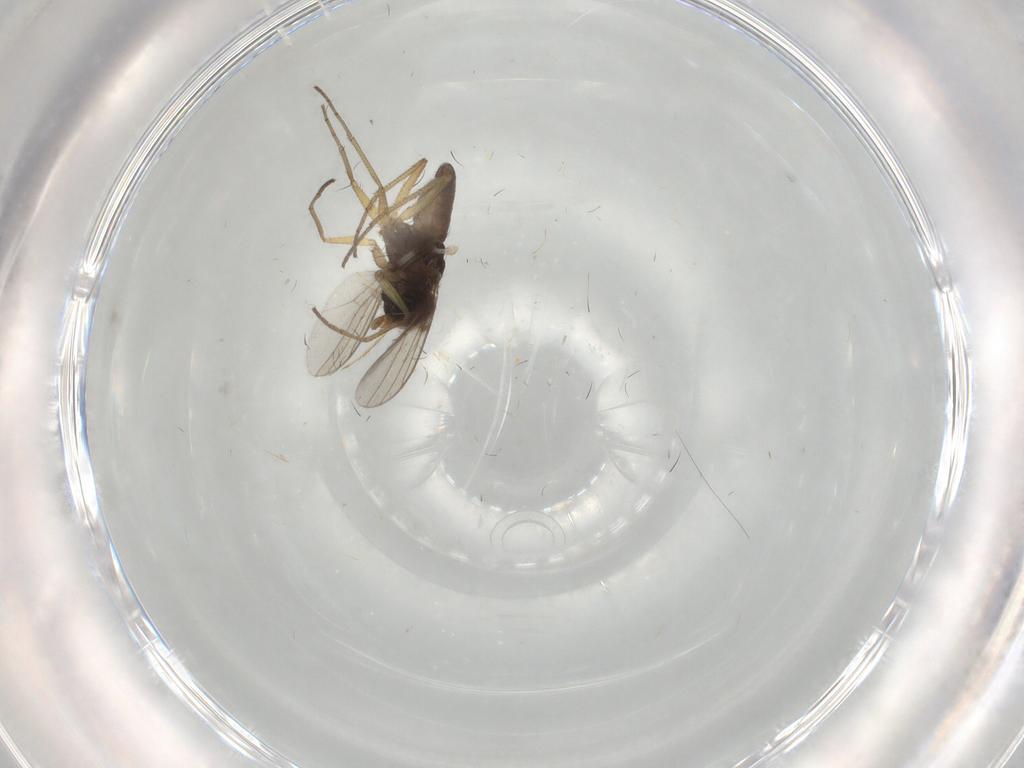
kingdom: Animalia
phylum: Arthropoda
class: Insecta
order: Diptera
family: Dolichopodidae
